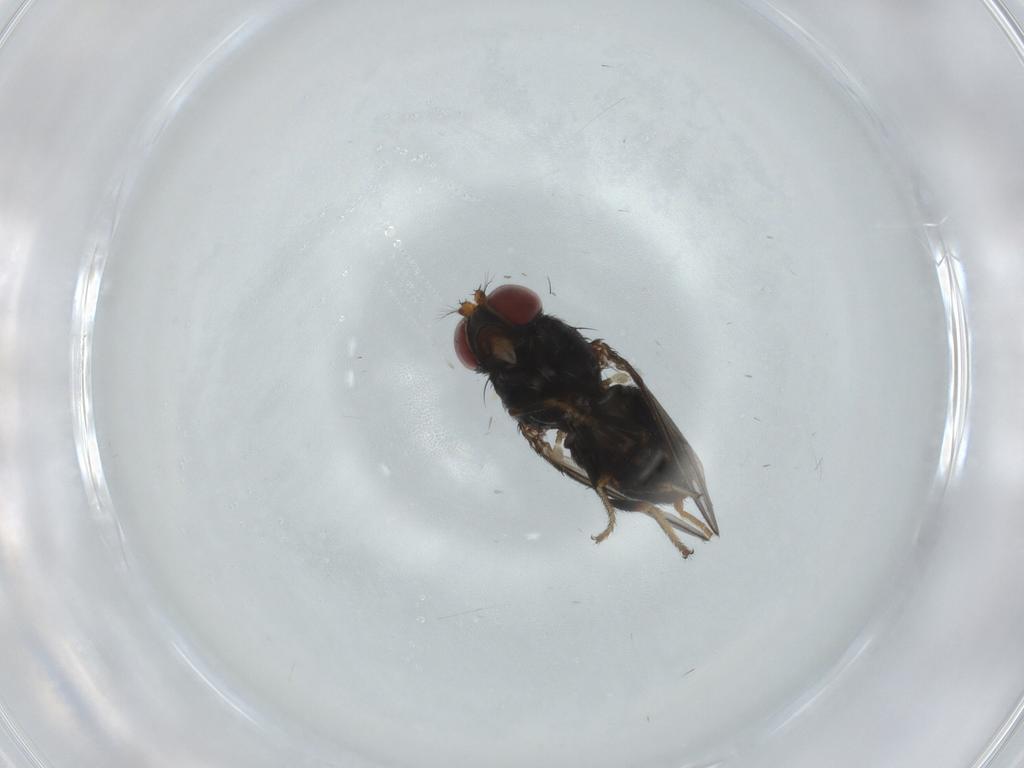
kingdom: Animalia
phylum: Arthropoda
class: Insecta
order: Diptera
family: Ephydridae
